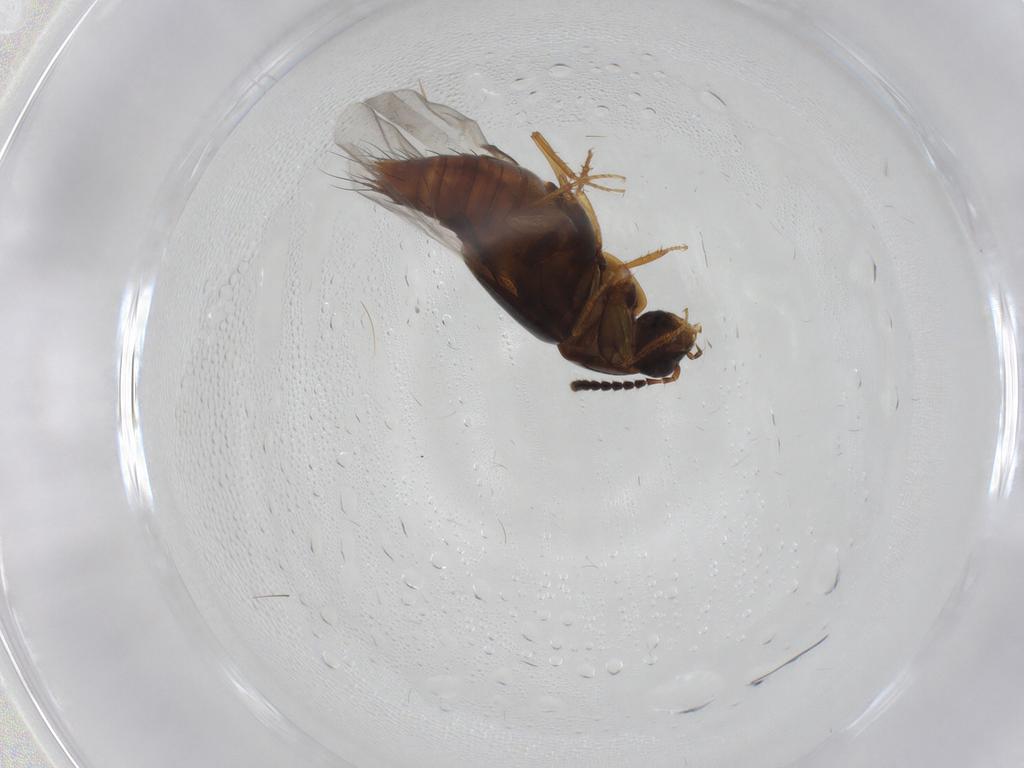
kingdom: Animalia
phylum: Arthropoda
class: Insecta
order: Coleoptera
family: Staphylinidae
